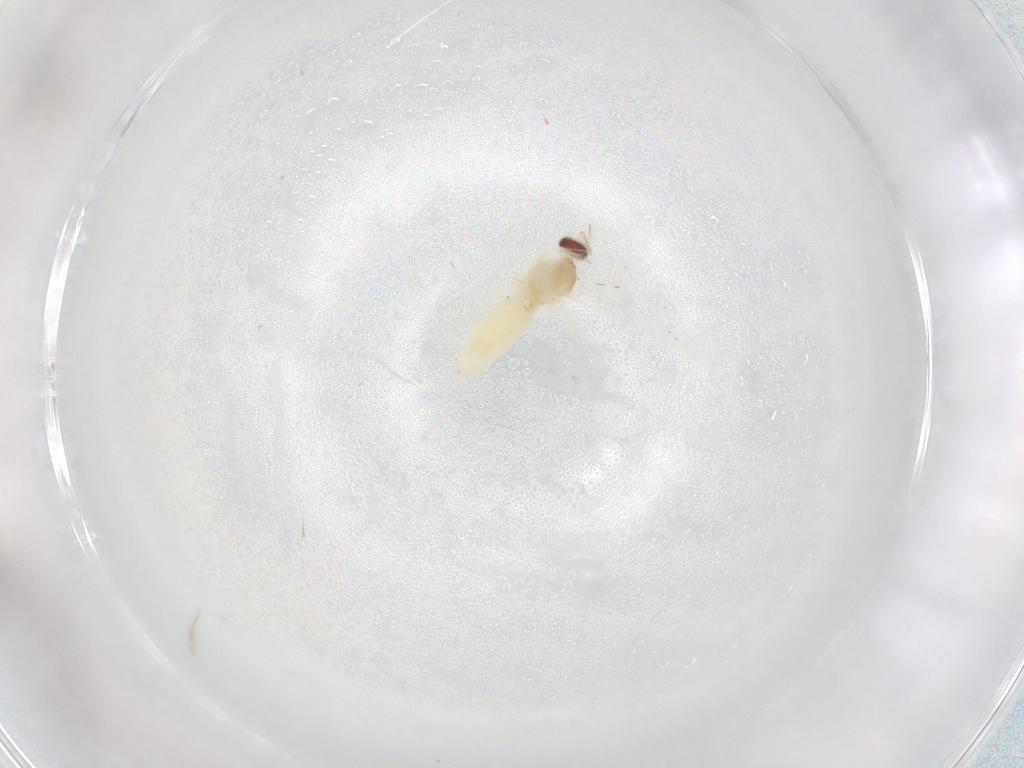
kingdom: Animalia
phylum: Arthropoda
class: Insecta
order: Diptera
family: Cecidomyiidae
